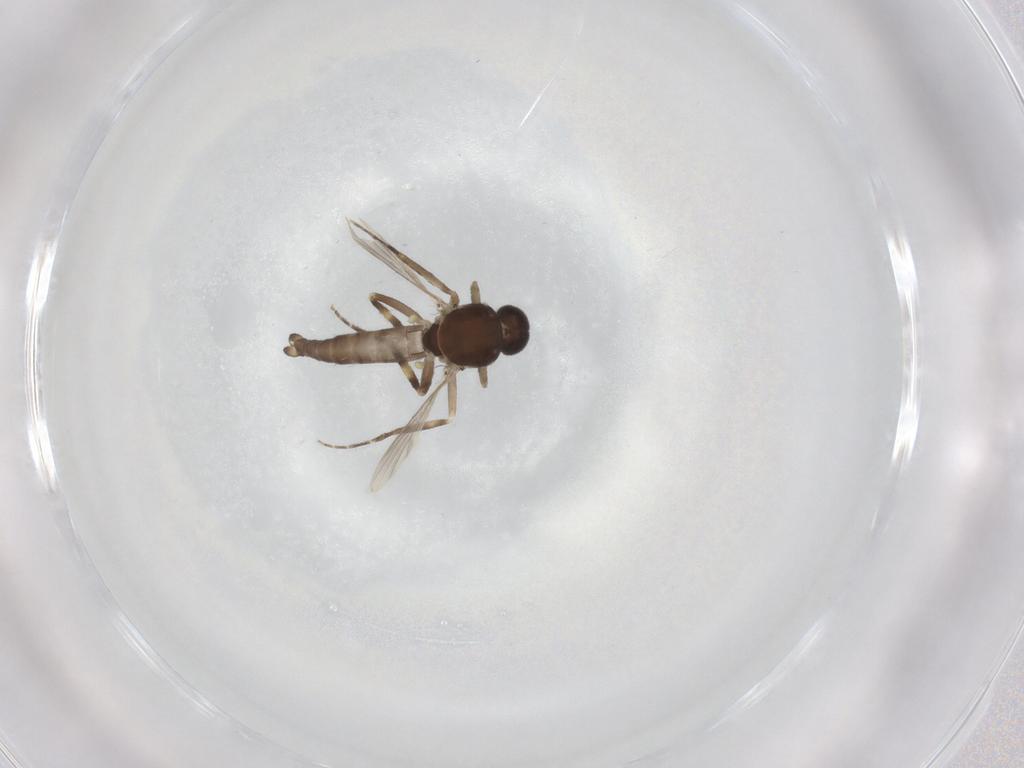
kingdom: Animalia
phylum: Arthropoda
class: Insecta
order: Diptera
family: Ceratopogonidae
